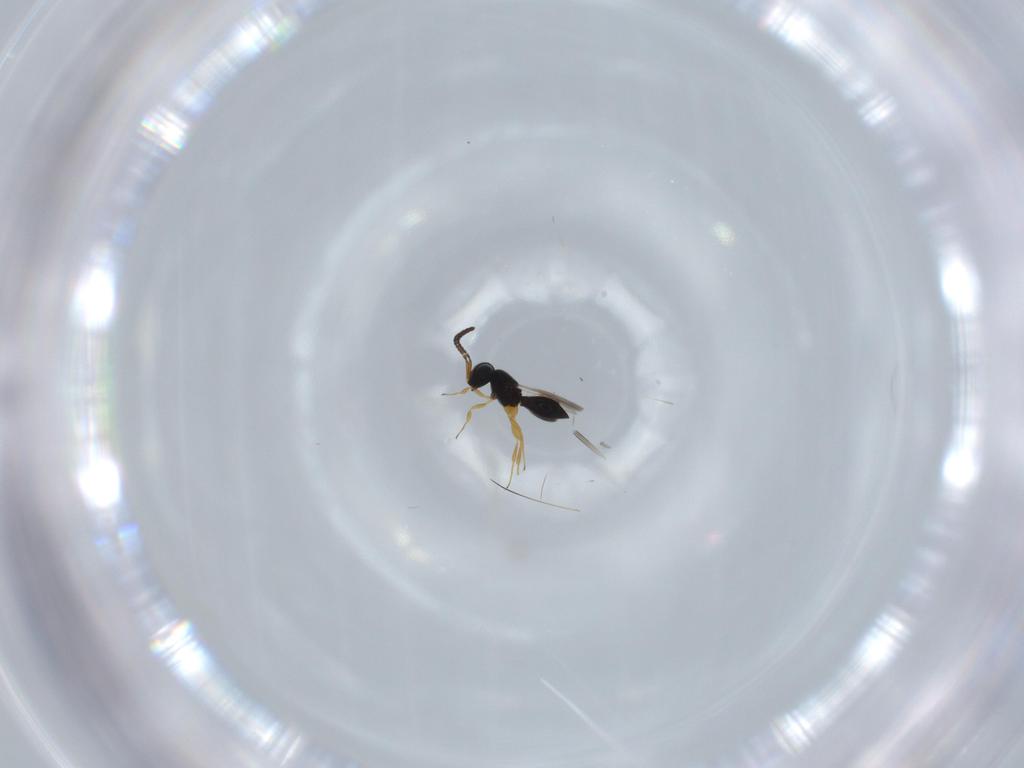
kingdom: Animalia
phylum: Arthropoda
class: Insecta
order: Hymenoptera
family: Scelionidae
